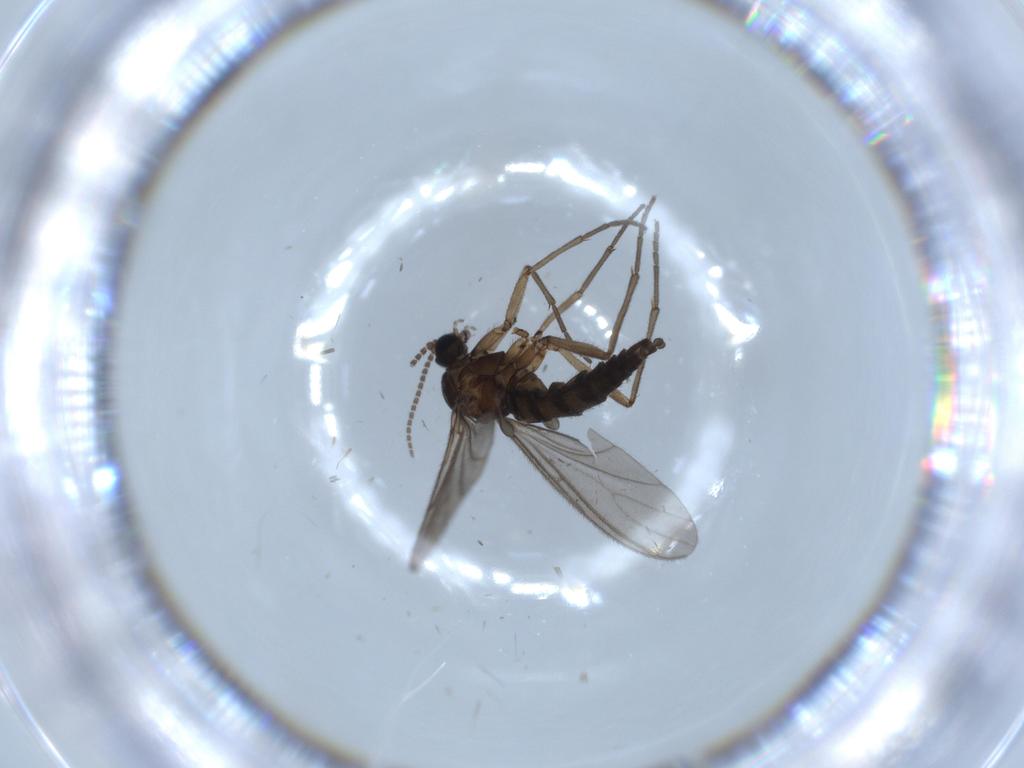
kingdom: Animalia
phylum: Arthropoda
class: Insecta
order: Diptera
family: Sciaridae
